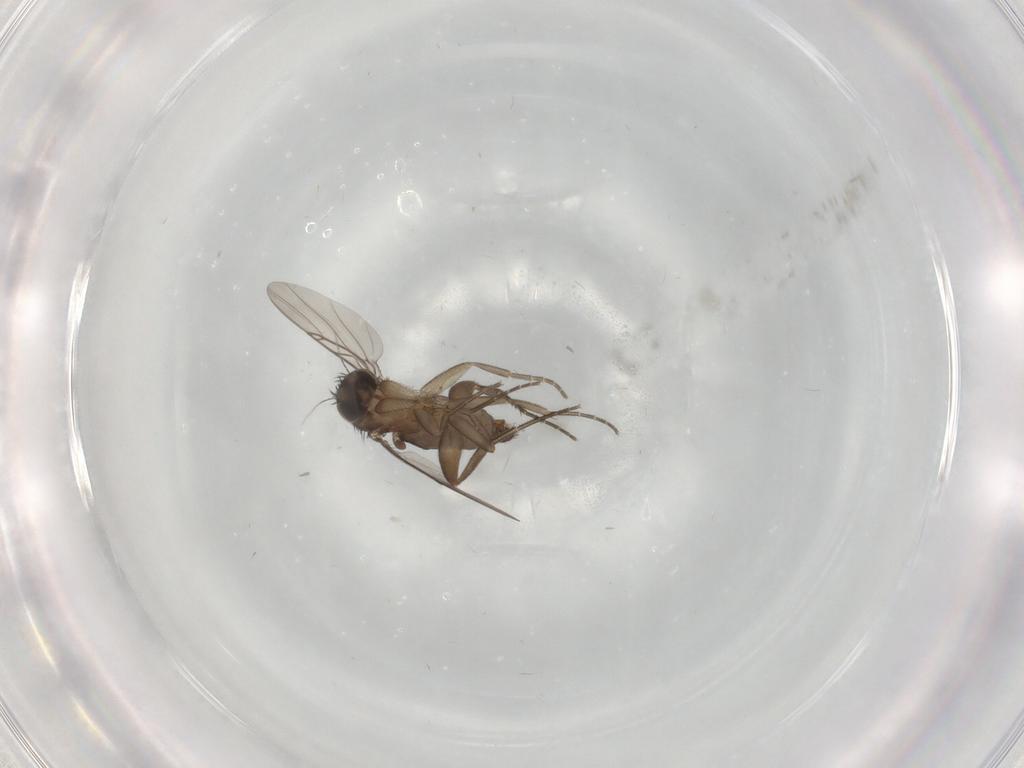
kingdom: Animalia
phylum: Arthropoda
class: Insecta
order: Diptera
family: Phoridae
